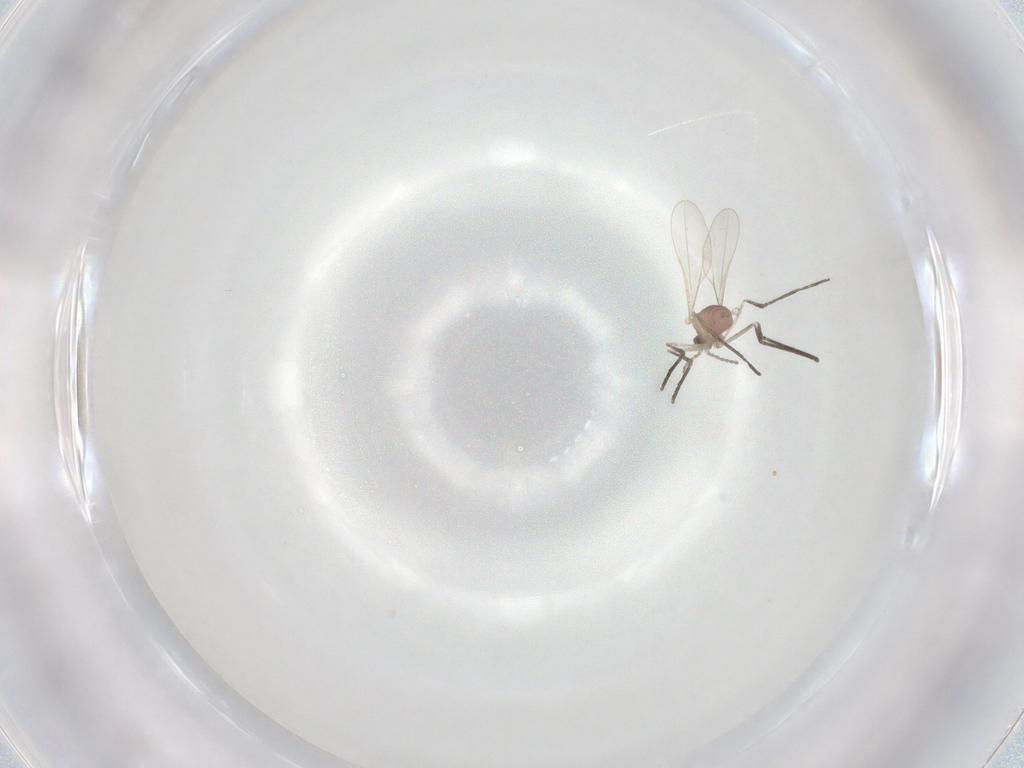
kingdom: Animalia
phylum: Arthropoda
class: Insecta
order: Diptera
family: Cecidomyiidae
